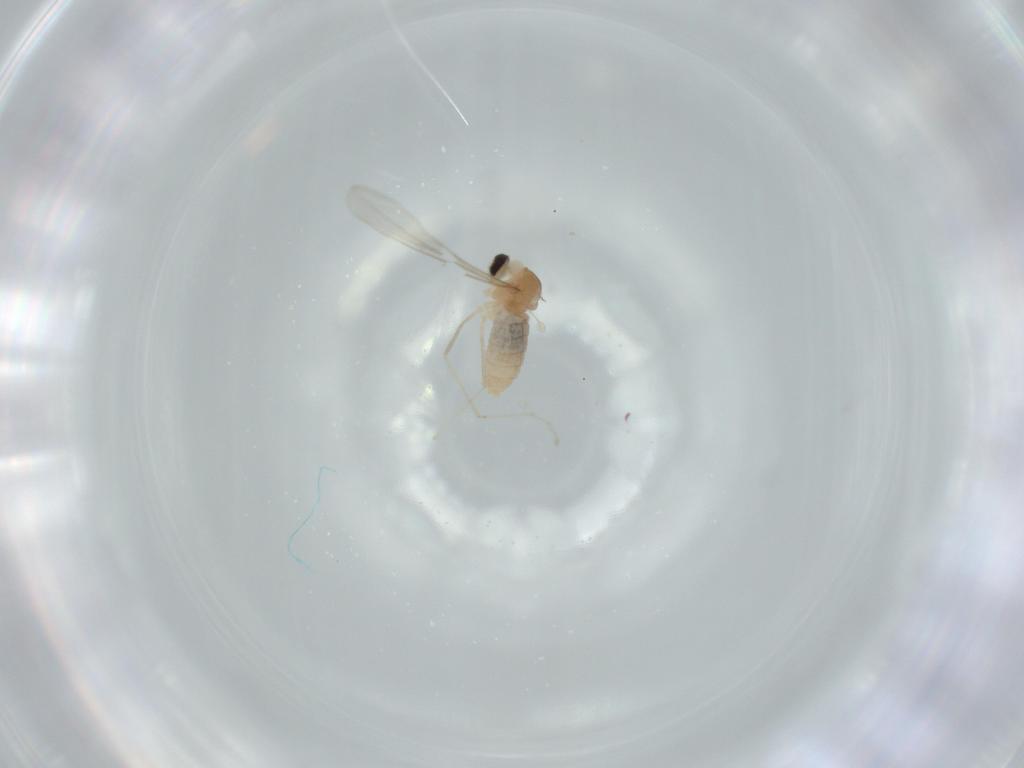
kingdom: Animalia
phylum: Arthropoda
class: Insecta
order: Diptera
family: Cecidomyiidae
